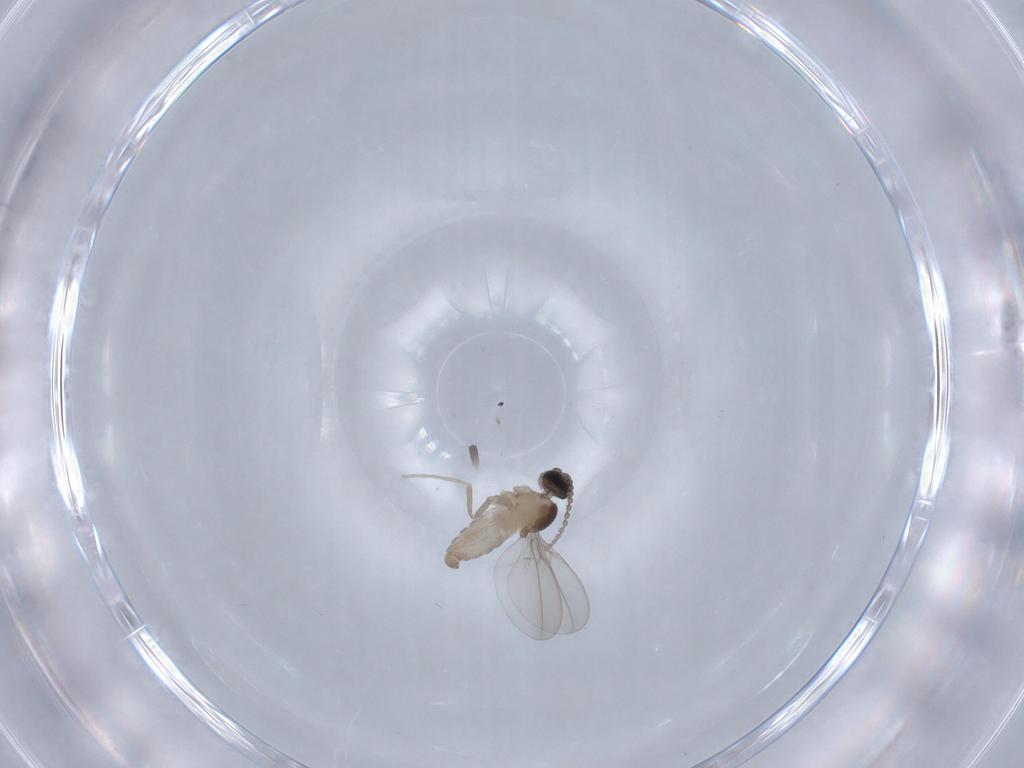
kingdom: Animalia
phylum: Arthropoda
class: Insecta
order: Diptera
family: Cecidomyiidae
